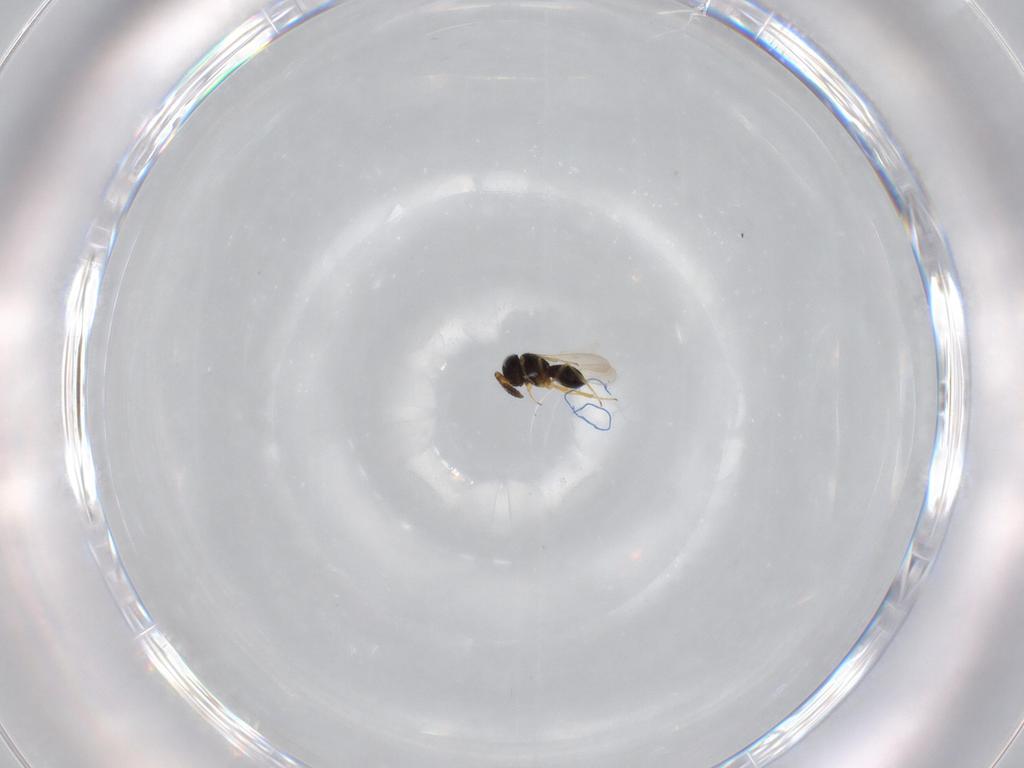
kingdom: Animalia
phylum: Arthropoda
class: Insecta
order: Hymenoptera
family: Scelionidae
